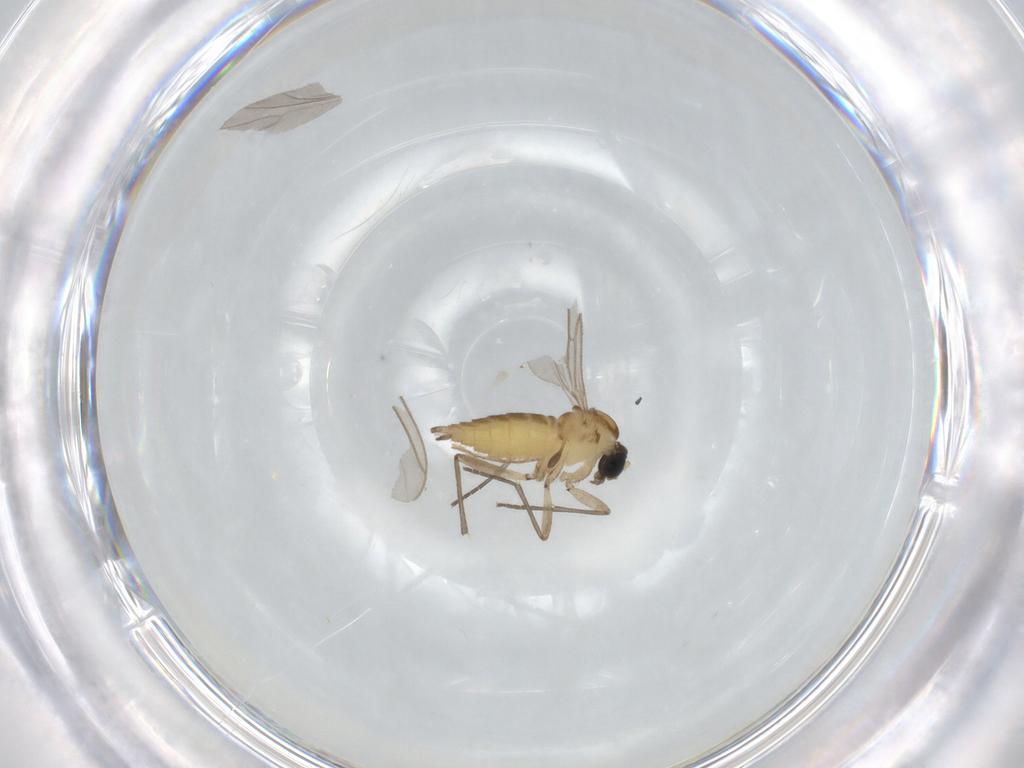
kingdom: Animalia
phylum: Arthropoda
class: Insecta
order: Diptera
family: Sciaridae
